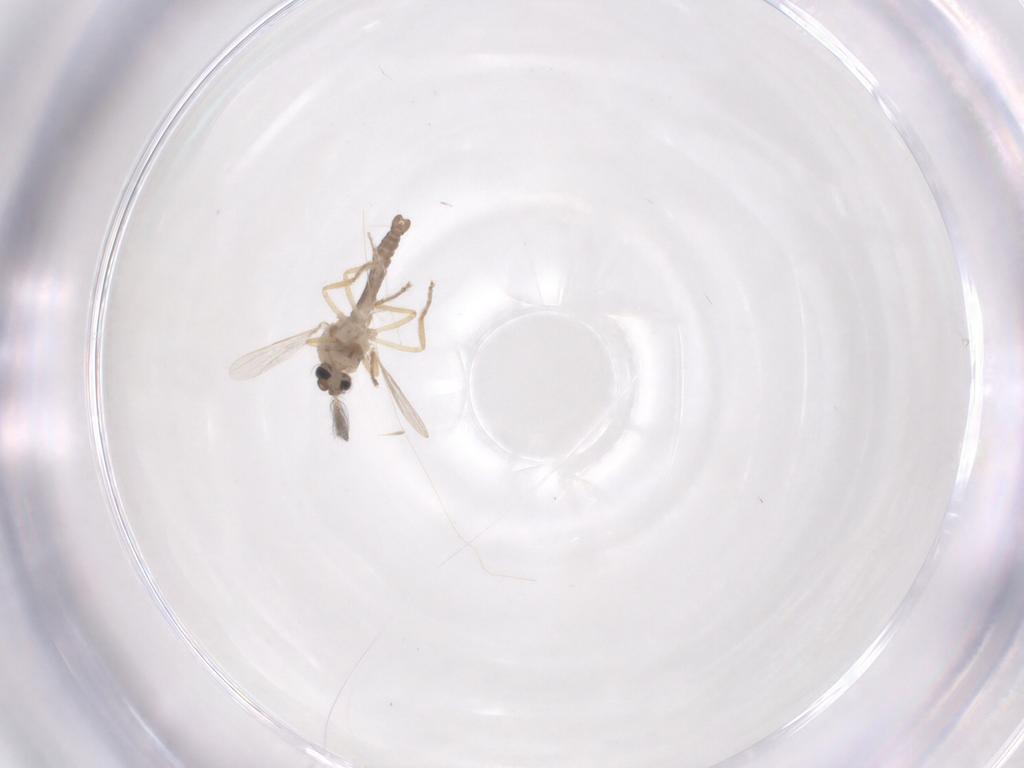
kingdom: Animalia
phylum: Arthropoda
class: Insecta
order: Diptera
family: Ceratopogonidae
